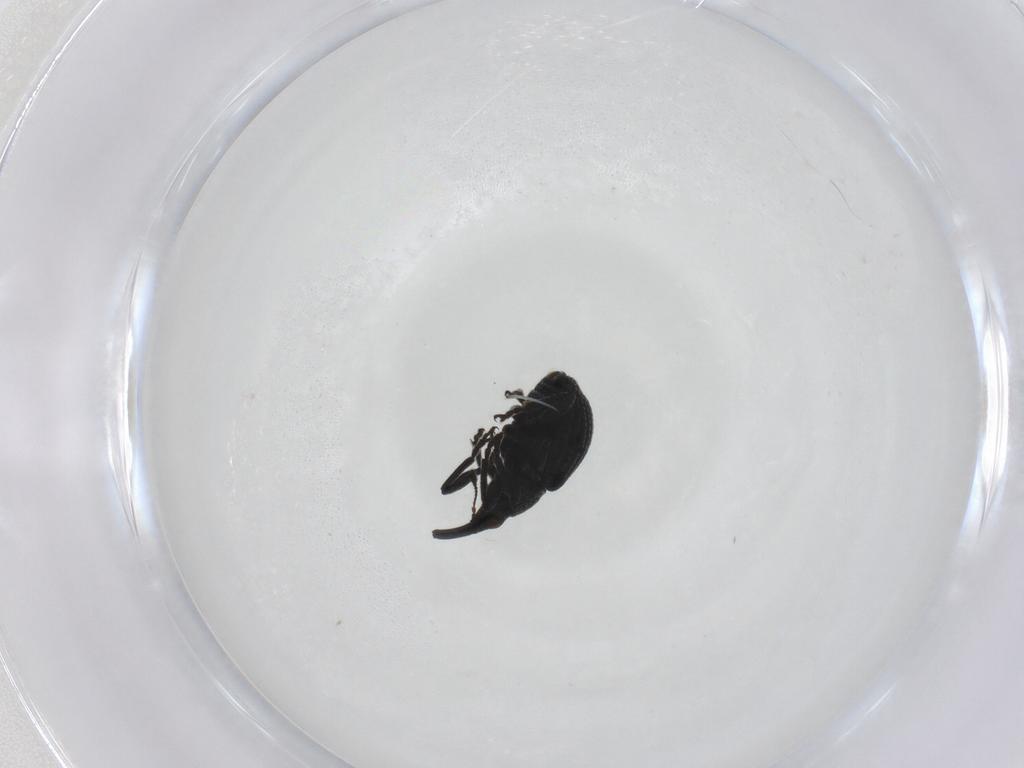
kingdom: Animalia
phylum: Arthropoda
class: Insecta
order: Coleoptera
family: Brentidae
